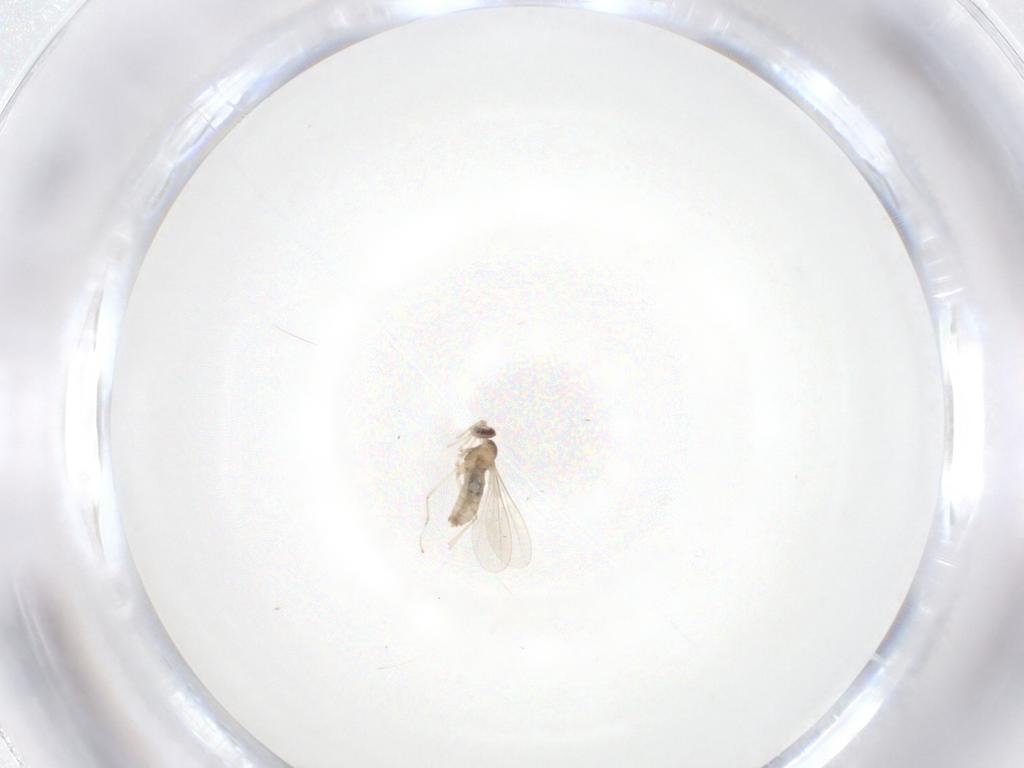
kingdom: Animalia
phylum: Arthropoda
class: Insecta
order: Diptera
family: Cecidomyiidae
